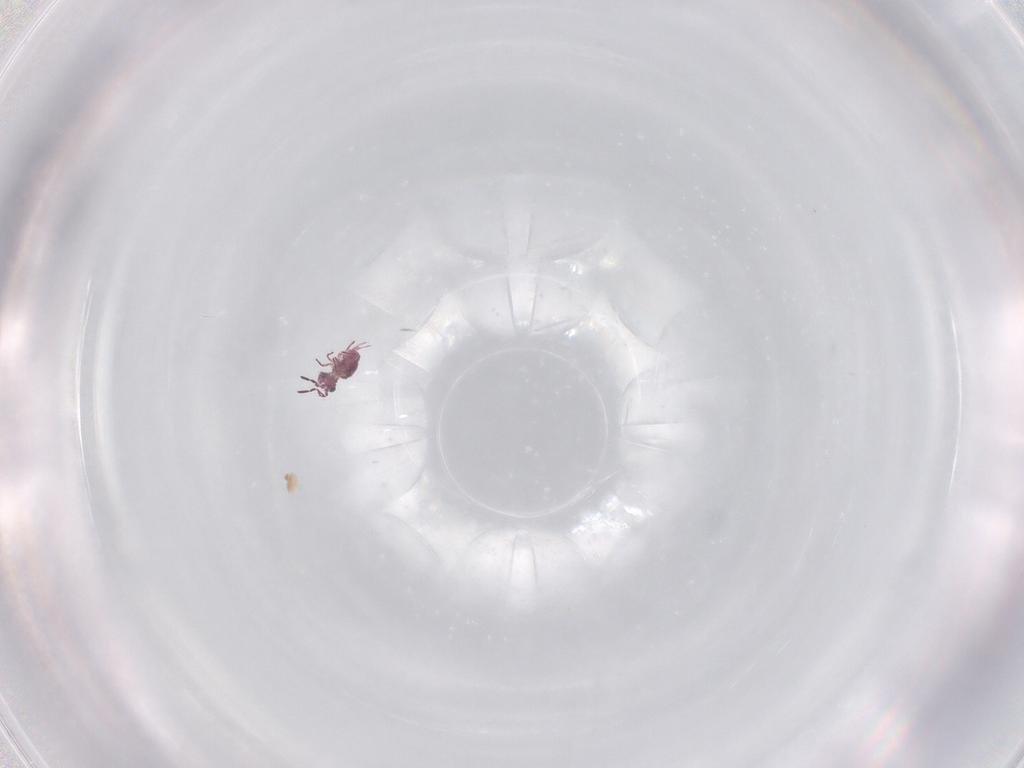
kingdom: Animalia
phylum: Arthropoda
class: Collembola
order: Symphypleona
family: Sminthurididae
